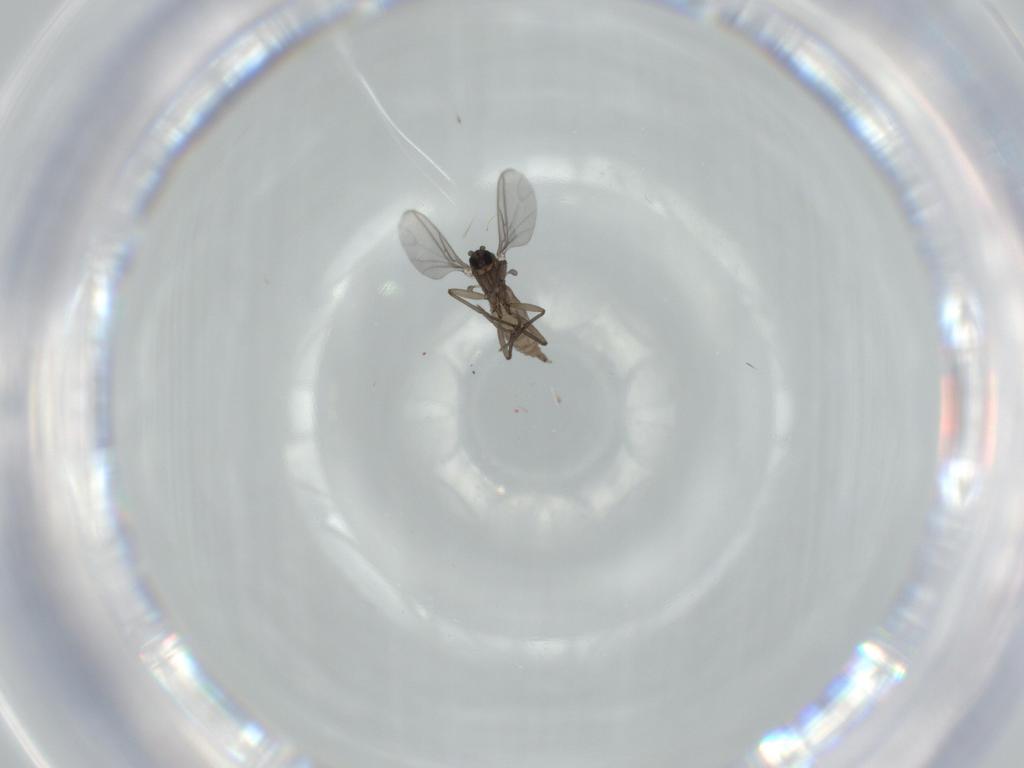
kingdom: Animalia
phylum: Arthropoda
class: Insecta
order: Diptera
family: Sciaridae
